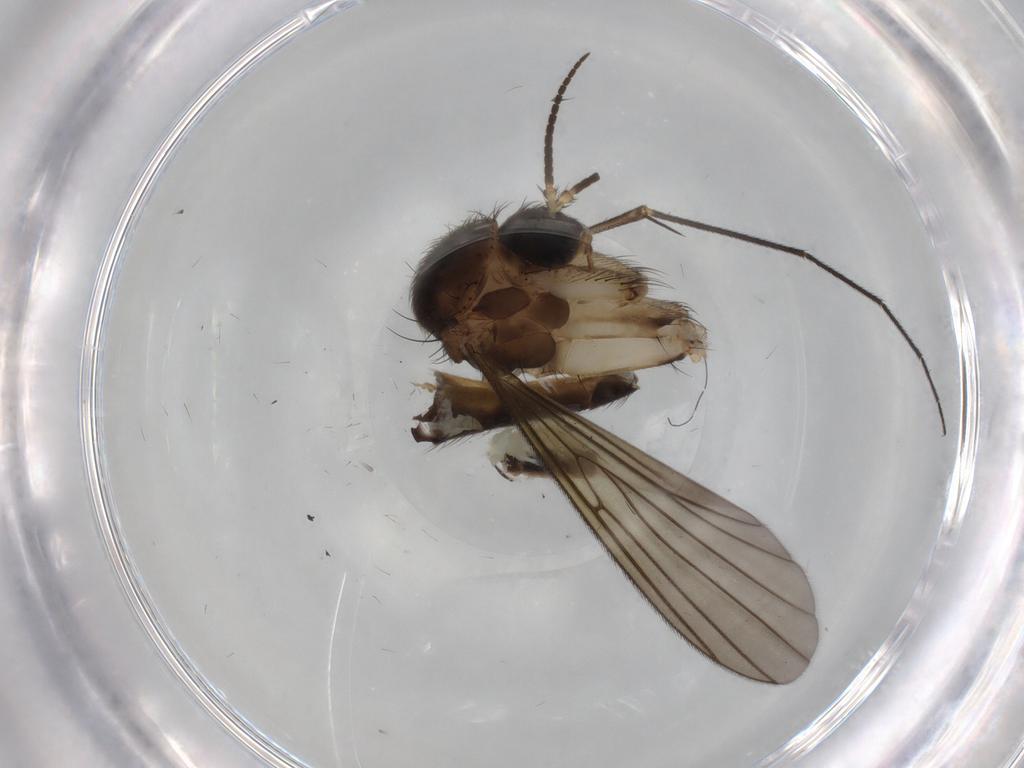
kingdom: Animalia
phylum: Arthropoda
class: Insecta
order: Diptera
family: Chironomidae
